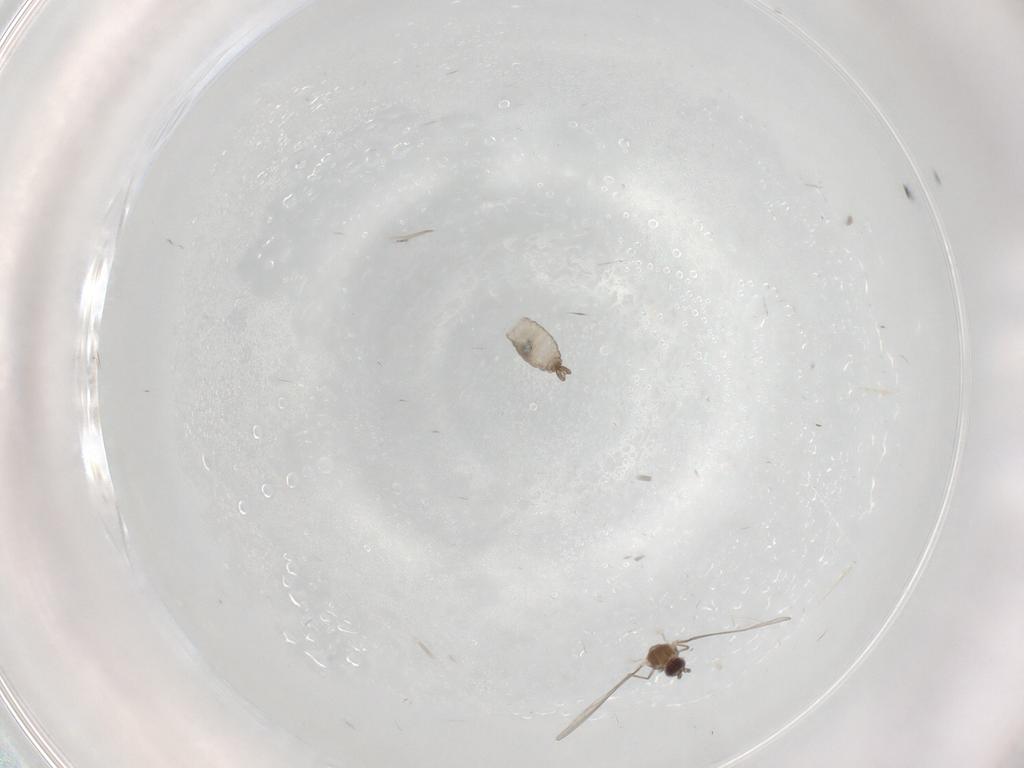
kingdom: Animalia
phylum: Arthropoda
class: Insecta
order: Diptera
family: Cecidomyiidae
